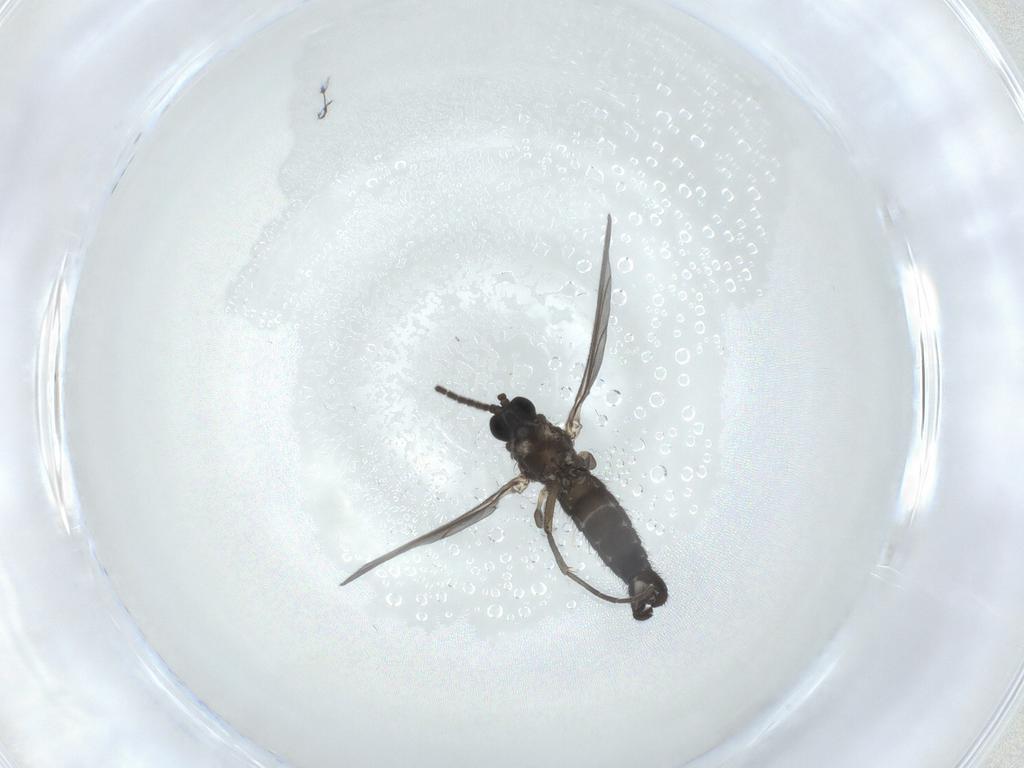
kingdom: Animalia
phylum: Arthropoda
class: Insecta
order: Diptera
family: Sciaridae
